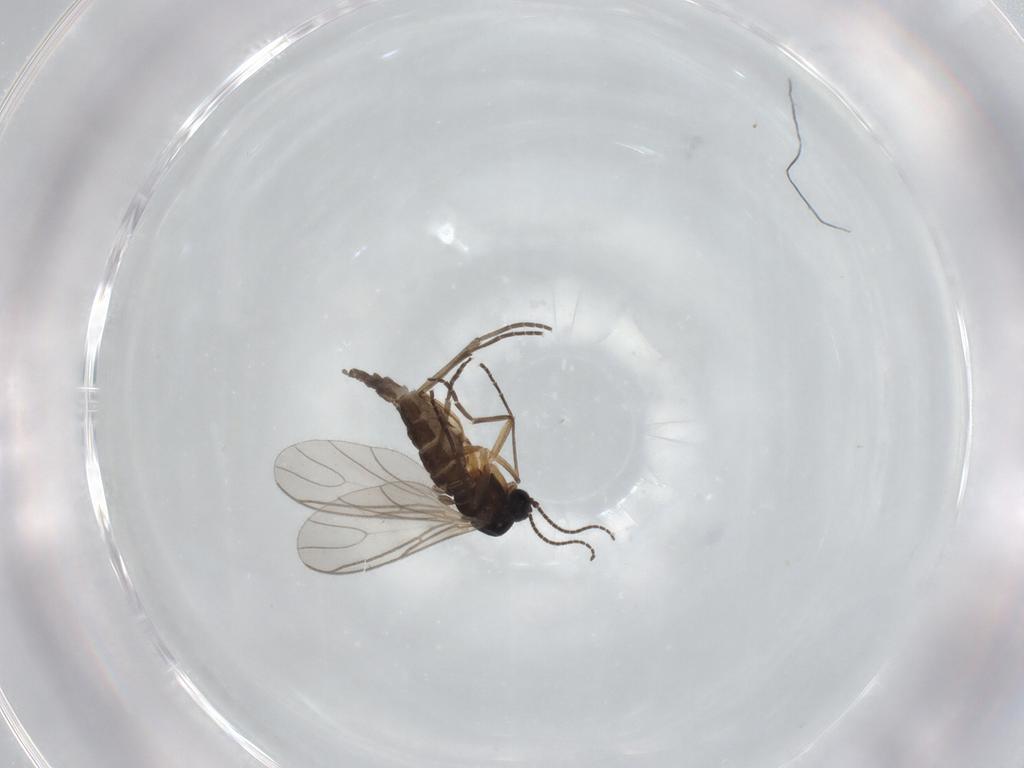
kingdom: Animalia
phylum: Arthropoda
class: Insecta
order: Diptera
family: Sciaridae
